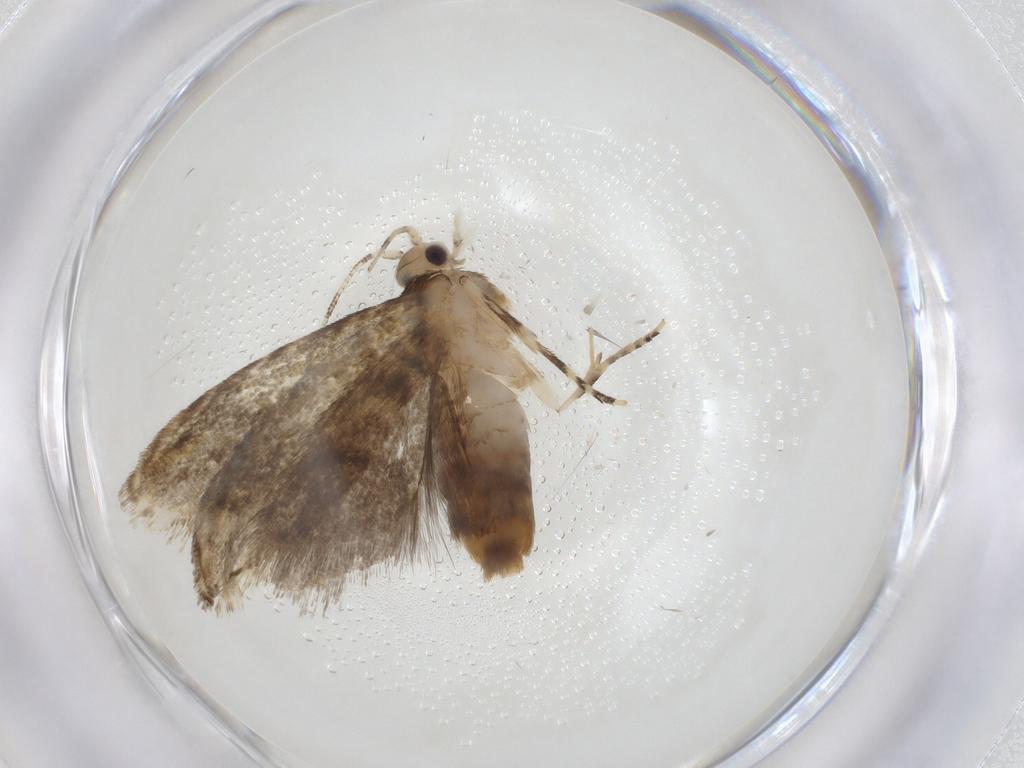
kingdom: Animalia
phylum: Arthropoda
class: Insecta
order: Lepidoptera
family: Tineidae
